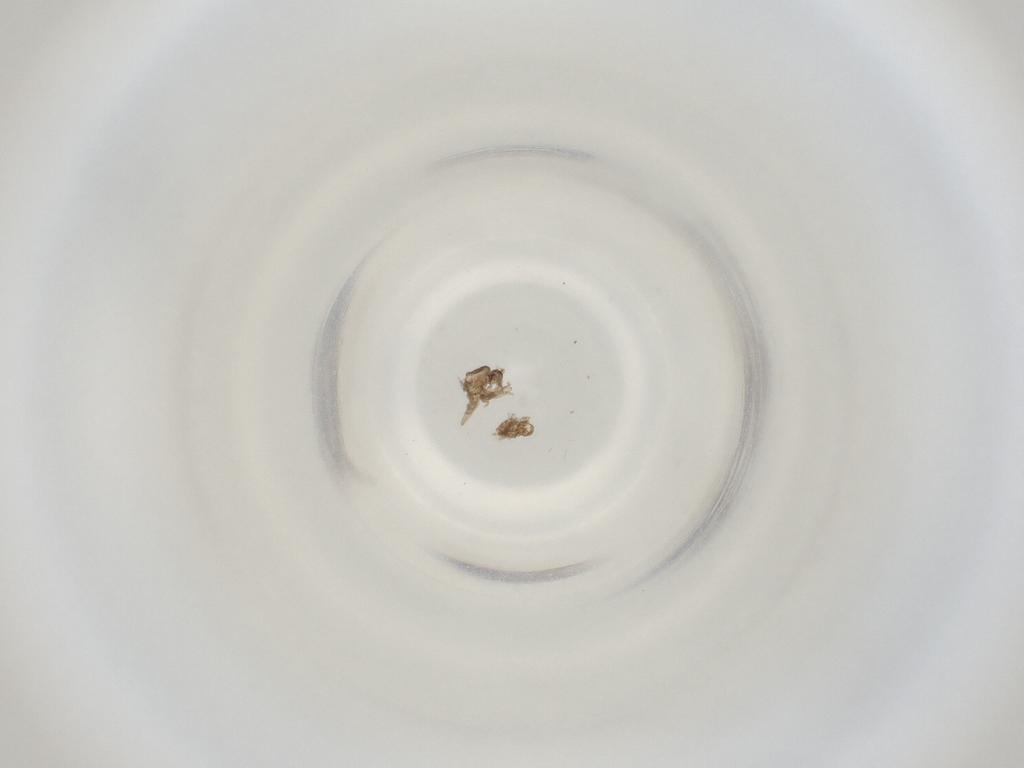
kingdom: Animalia
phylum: Arthropoda
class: Insecta
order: Diptera
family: Cecidomyiidae
